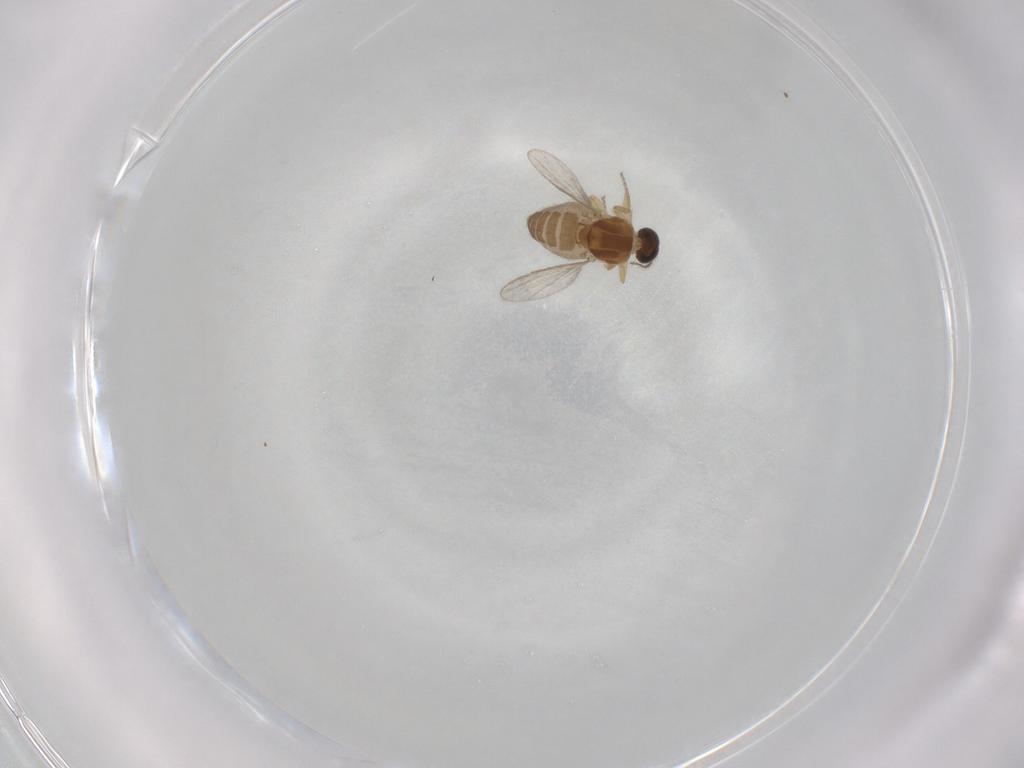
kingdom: Animalia
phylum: Arthropoda
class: Insecta
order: Diptera
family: Ceratopogonidae
